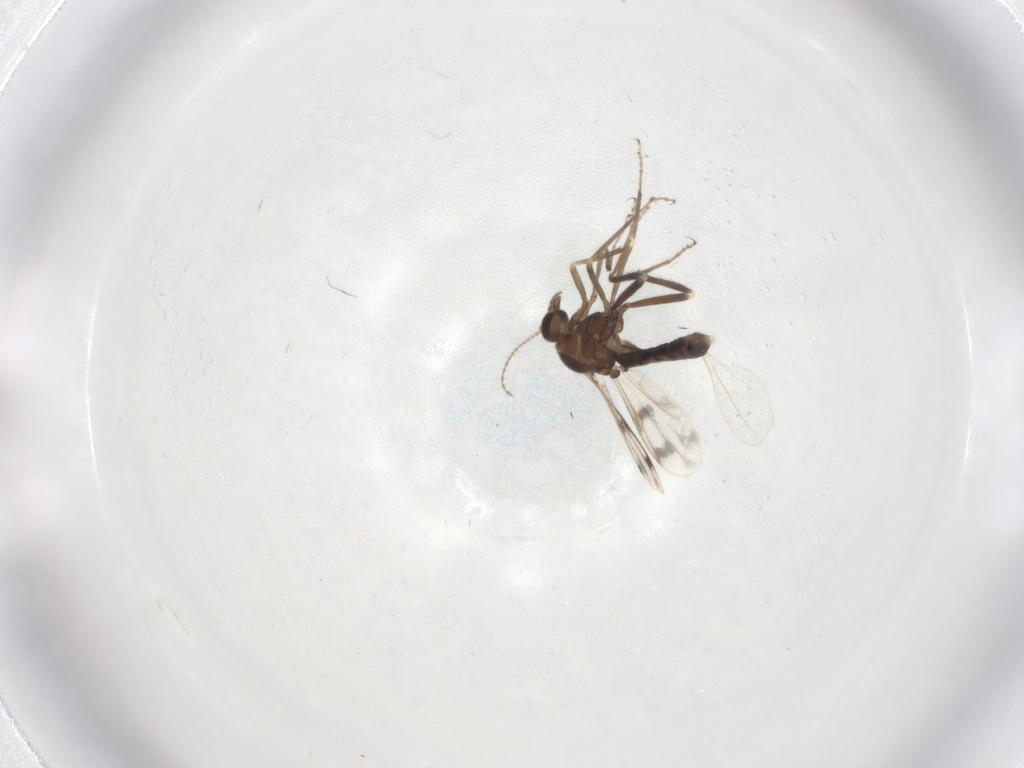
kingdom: Animalia
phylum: Arthropoda
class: Insecta
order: Diptera
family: Ceratopogonidae
